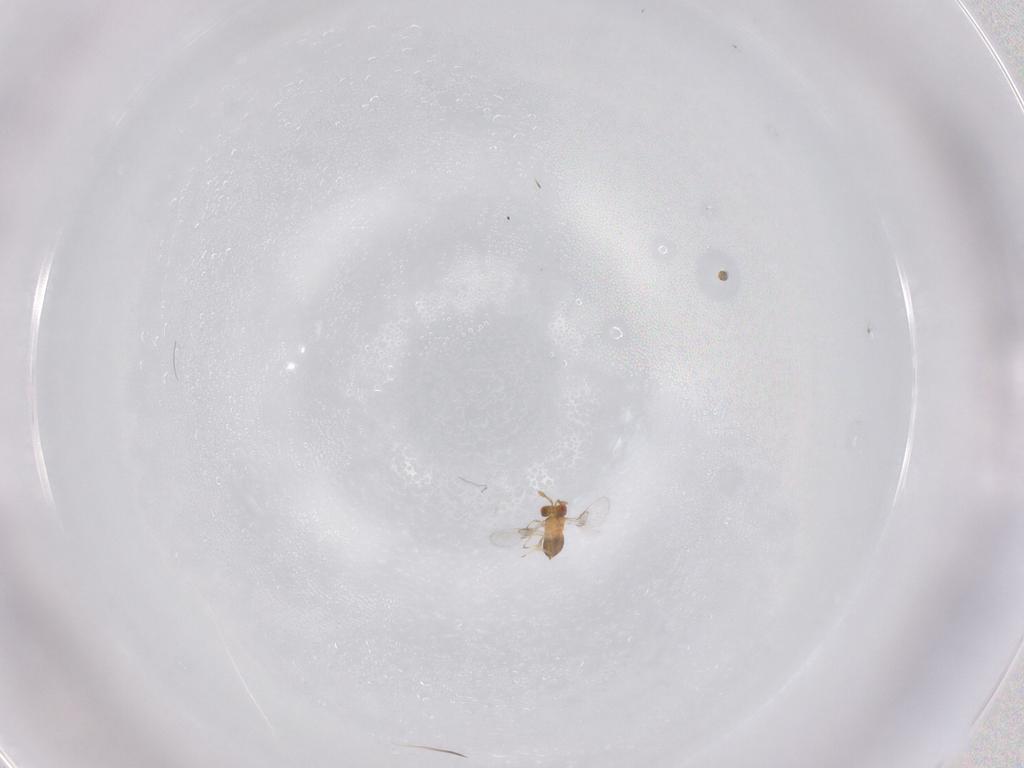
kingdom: Animalia
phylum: Arthropoda
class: Insecta
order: Hymenoptera
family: Trichogrammatidae
